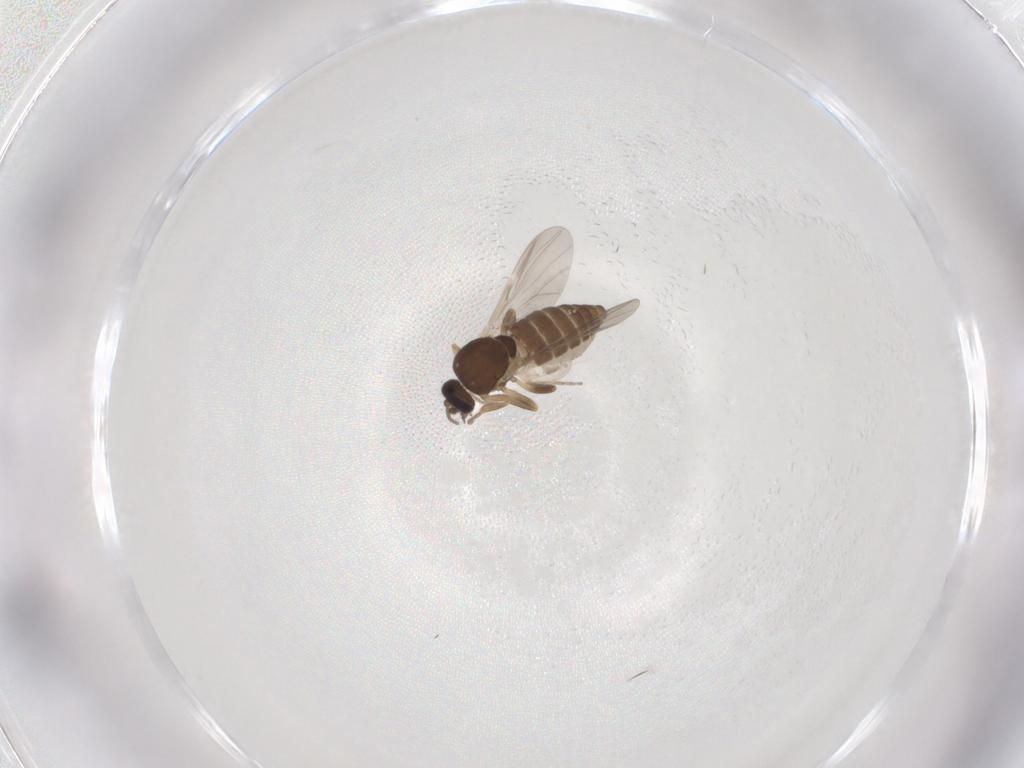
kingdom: Animalia
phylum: Arthropoda
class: Insecta
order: Diptera
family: Ceratopogonidae
